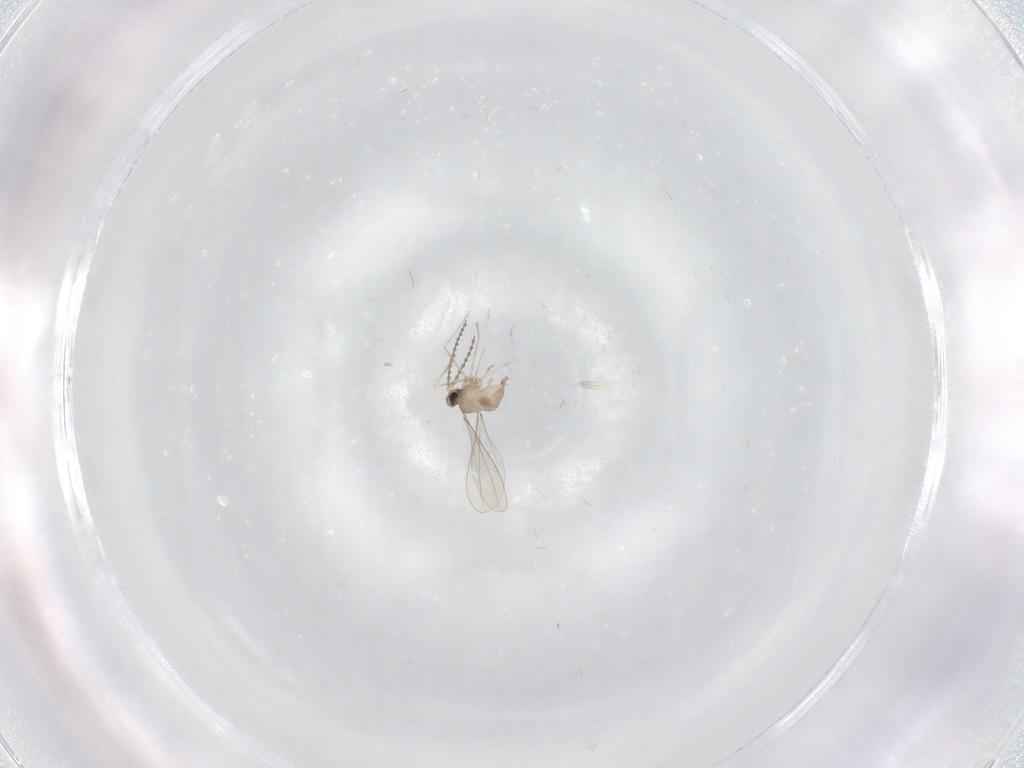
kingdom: Animalia
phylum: Arthropoda
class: Insecta
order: Diptera
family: Cecidomyiidae
